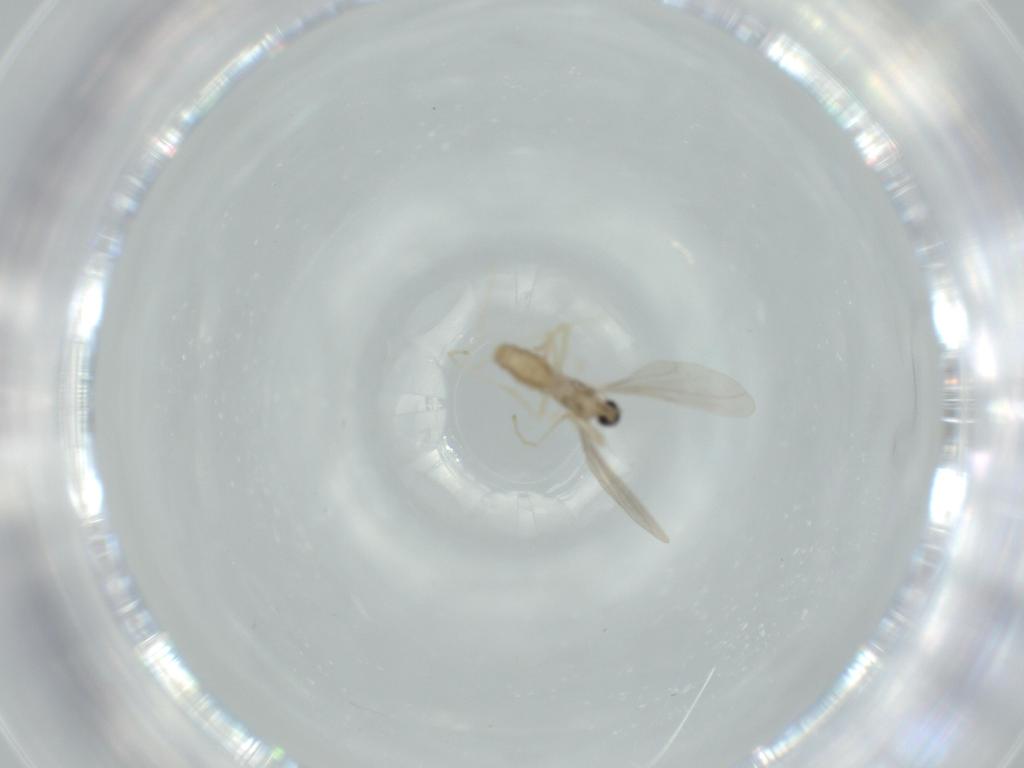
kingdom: Animalia
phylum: Arthropoda
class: Insecta
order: Diptera
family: Cecidomyiidae
